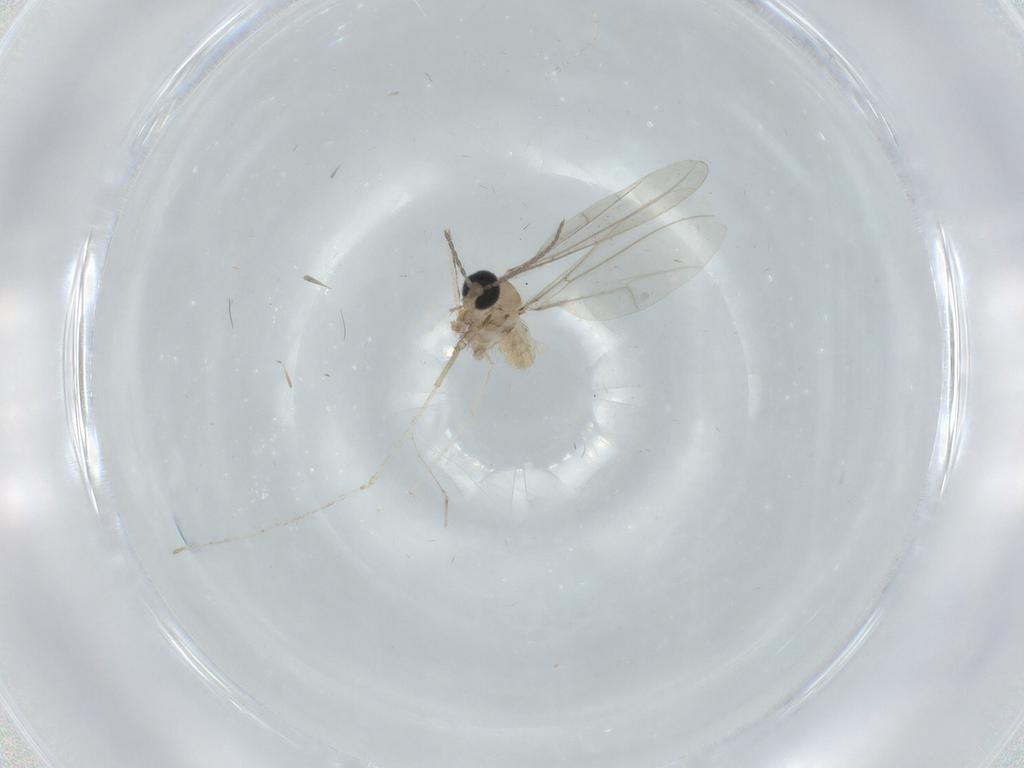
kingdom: Animalia
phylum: Arthropoda
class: Insecta
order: Diptera
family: Cecidomyiidae
